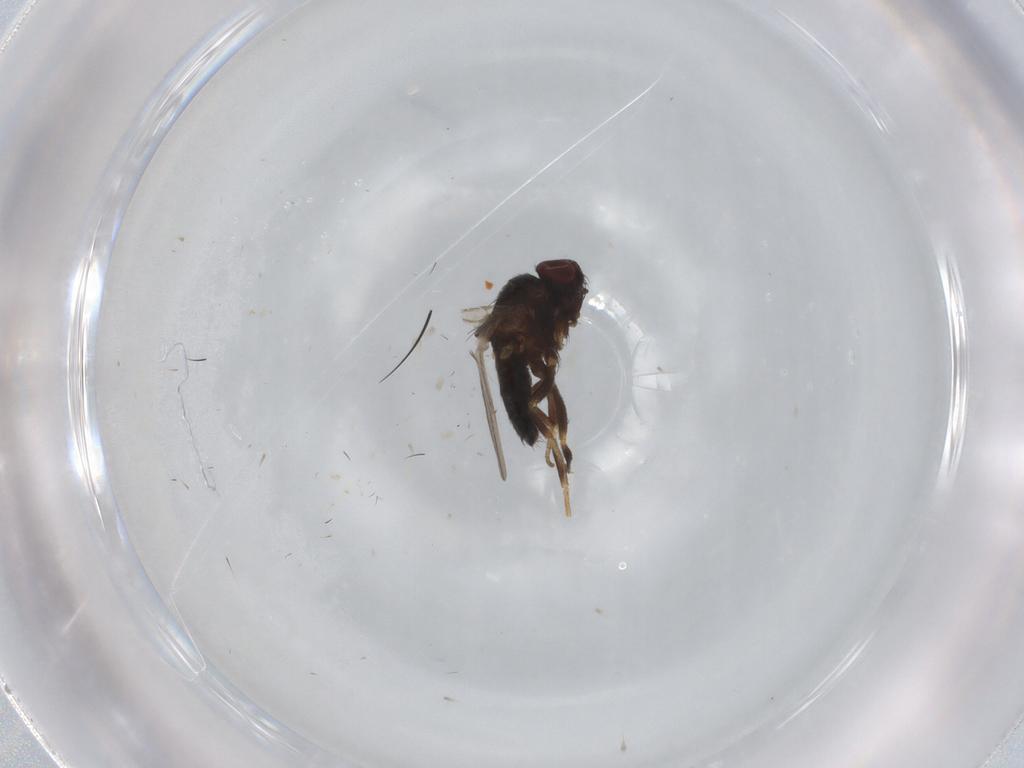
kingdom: Animalia
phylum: Arthropoda
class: Insecta
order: Diptera
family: Milichiidae
